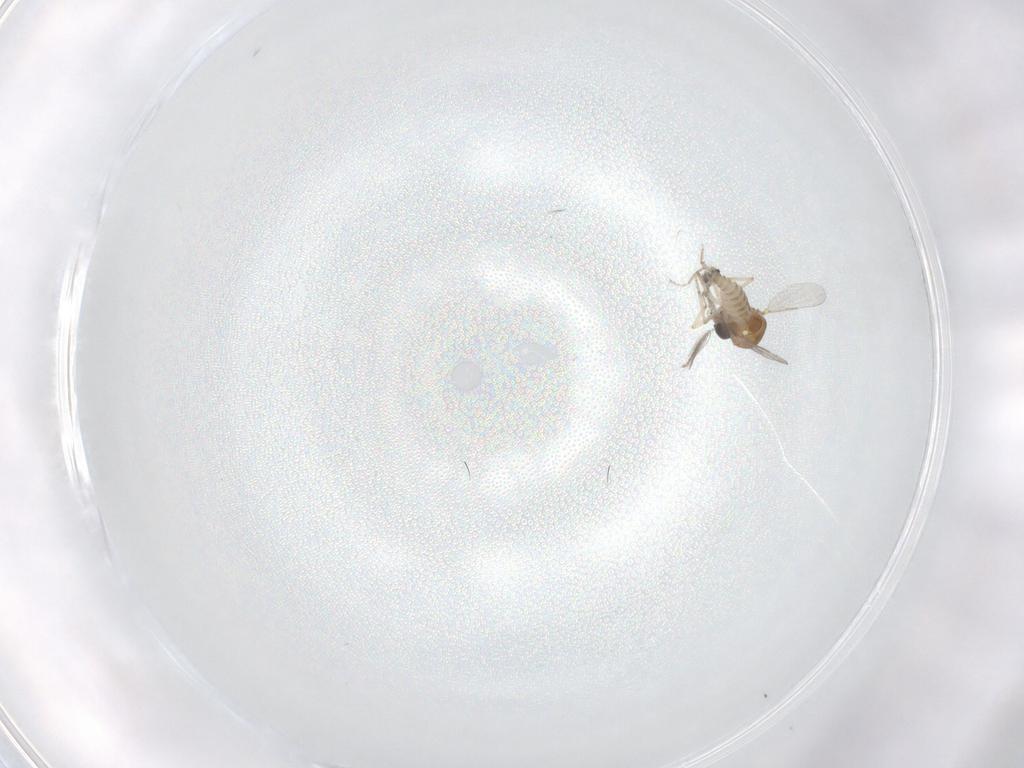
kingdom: Animalia
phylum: Arthropoda
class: Insecta
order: Diptera
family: Ceratopogonidae
